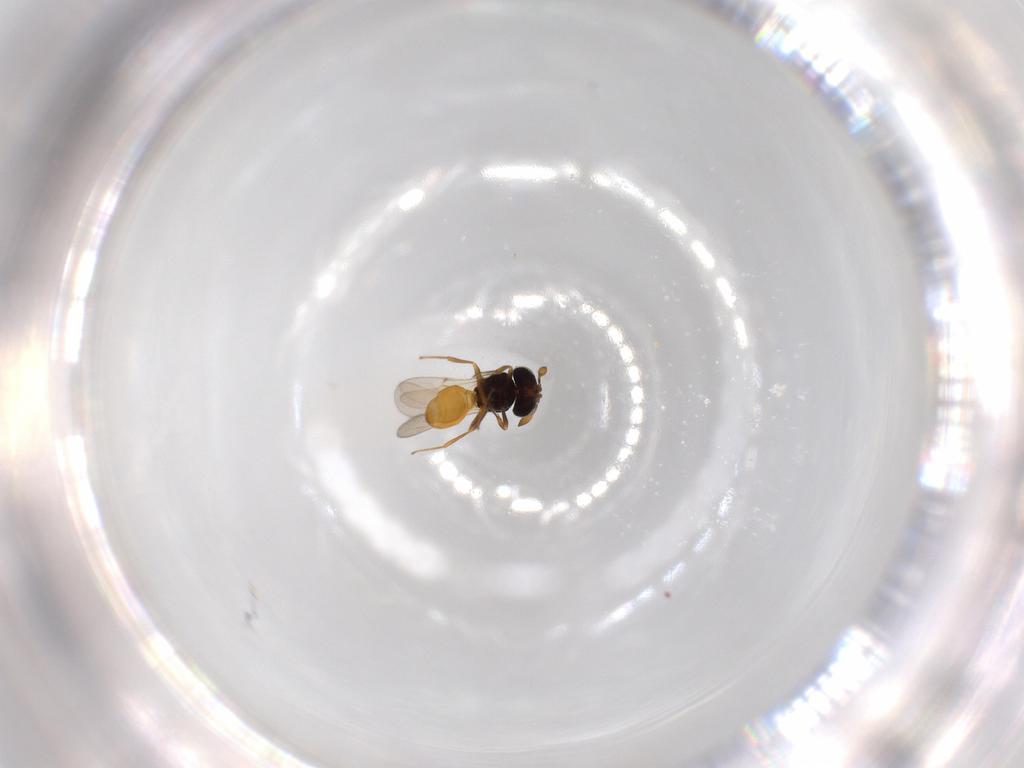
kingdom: Animalia
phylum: Arthropoda
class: Insecta
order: Hymenoptera
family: Scelionidae
